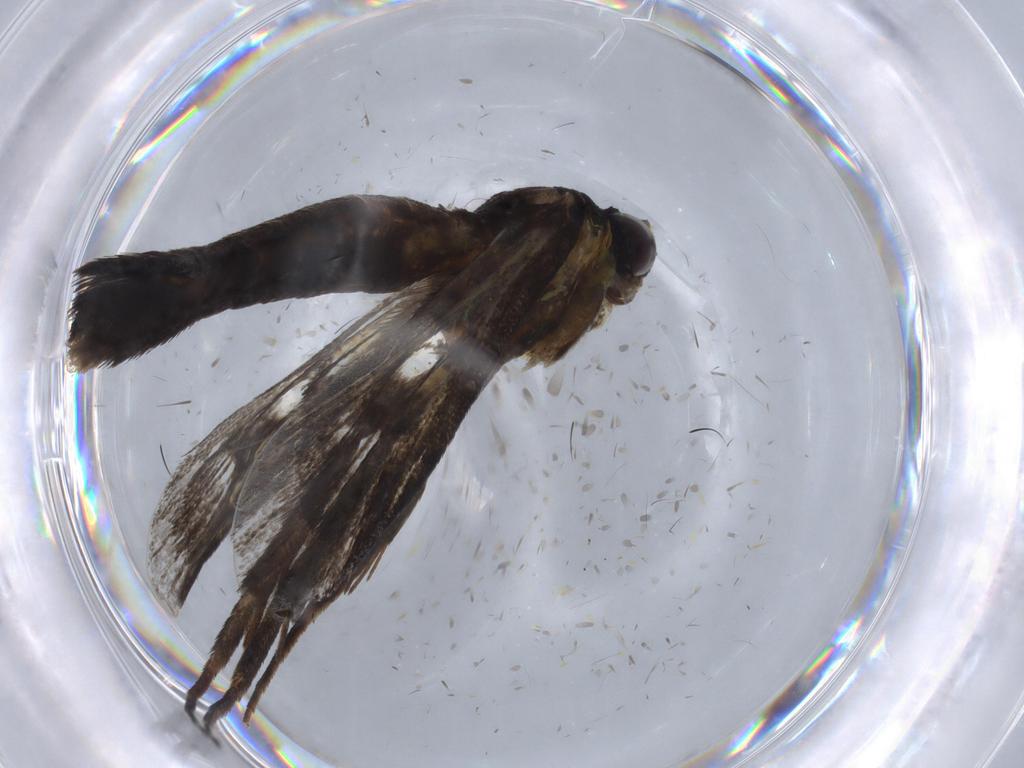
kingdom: Animalia
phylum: Arthropoda
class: Insecta
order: Lepidoptera
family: Sesiidae
